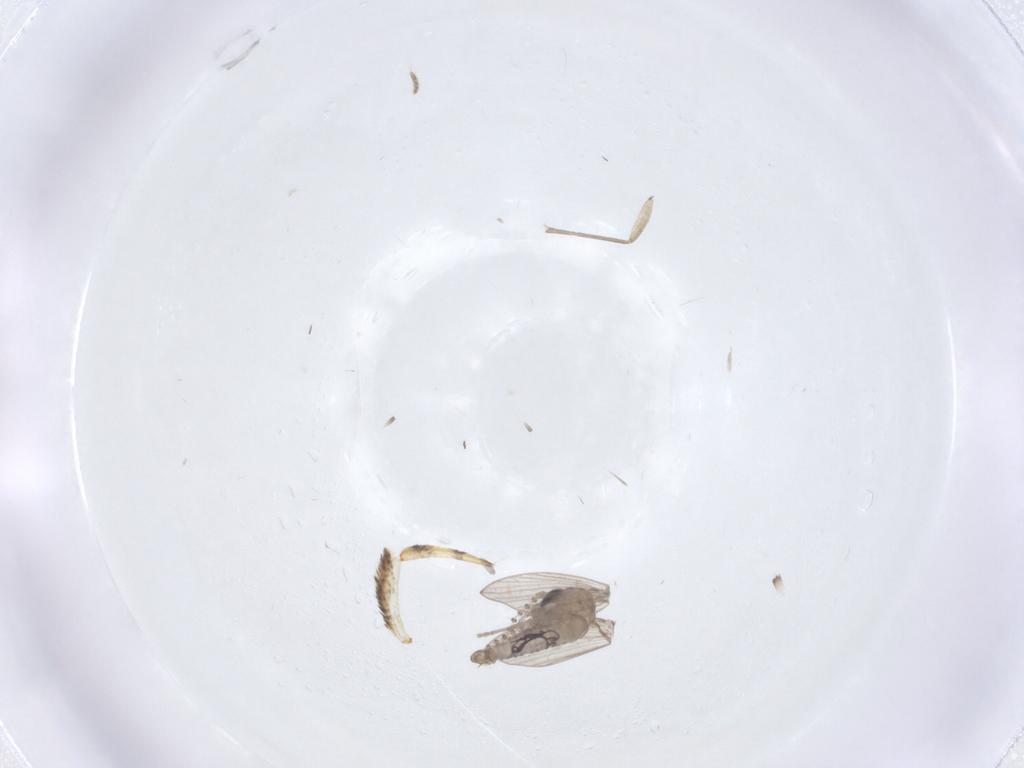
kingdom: Animalia
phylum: Arthropoda
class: Insecta
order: Diptera
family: Psychodidae
